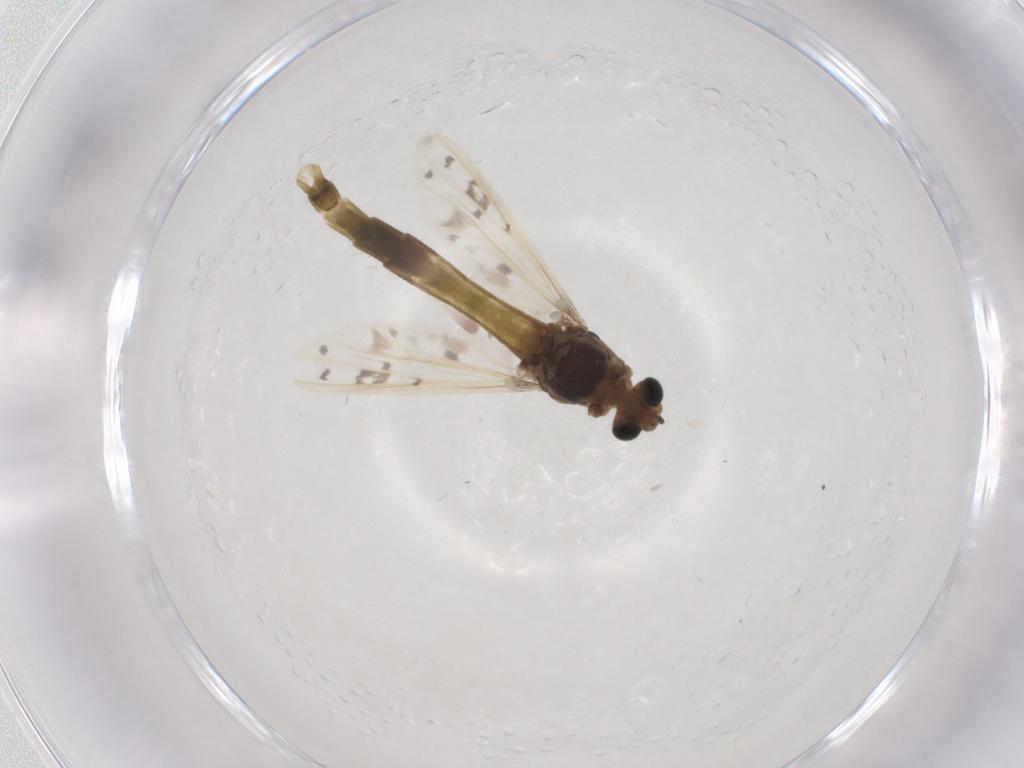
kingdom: Animalia
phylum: Arthropoda
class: Insecta
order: Diptera
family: Chironomidae
